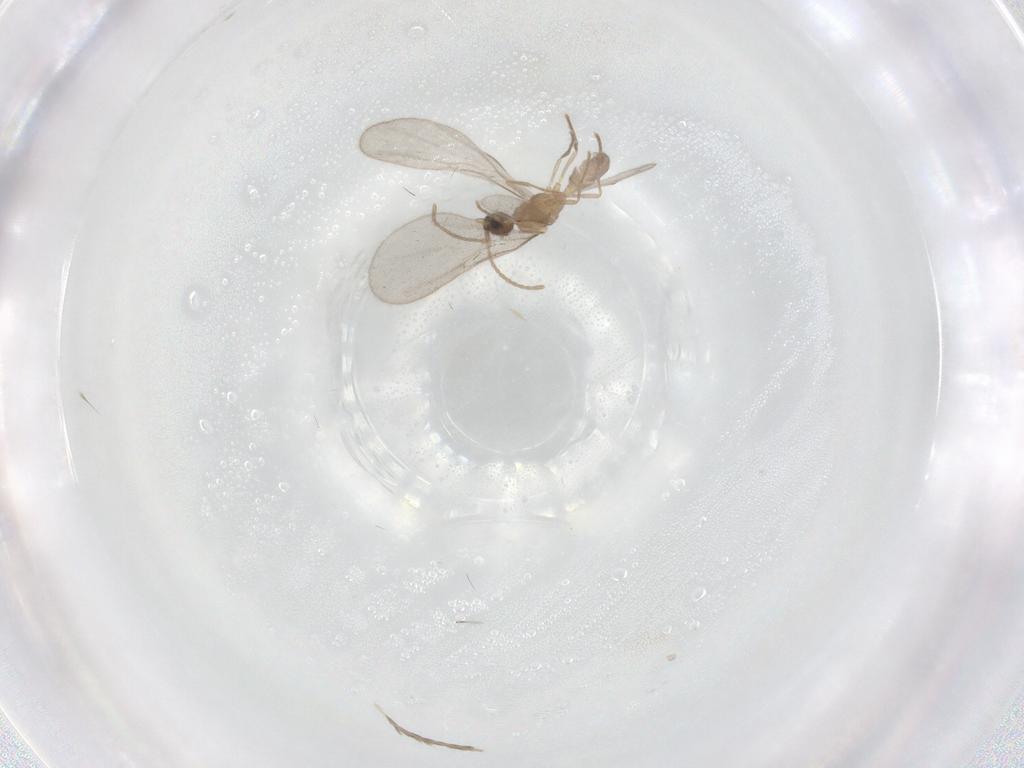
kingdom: Animalia
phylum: Arthropoda
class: Insecta
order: Hymenoptera
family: Formicidae
